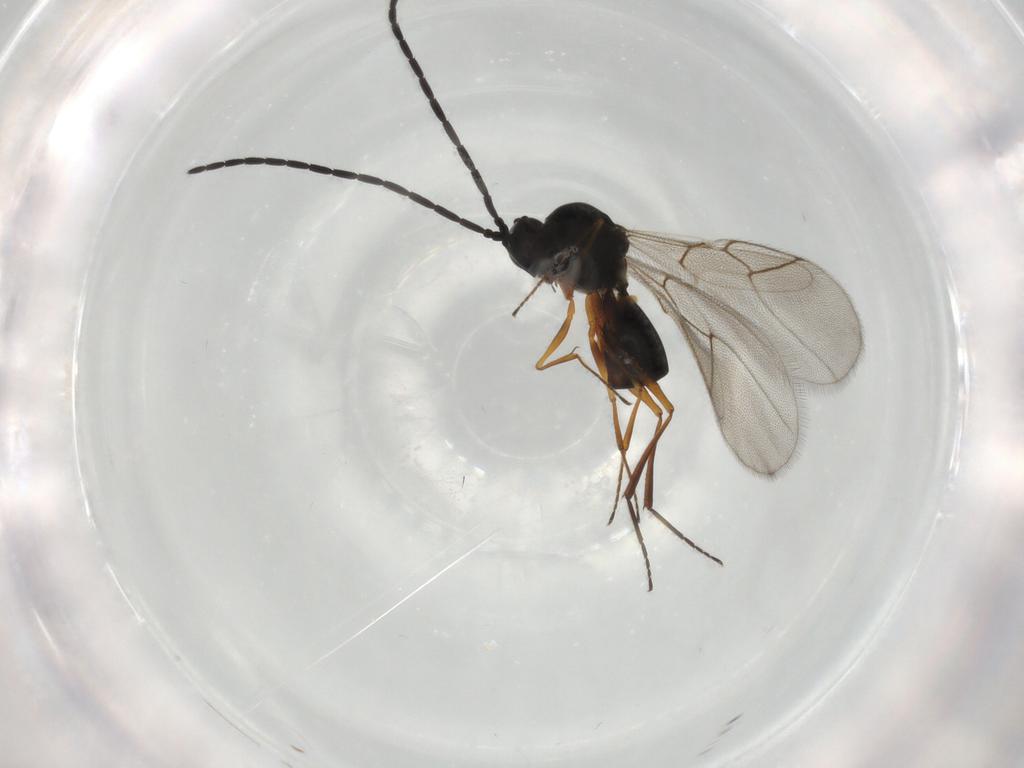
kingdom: Animalia
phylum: Arthropoda
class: Insecta
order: Hymenoptera
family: Figitidae
